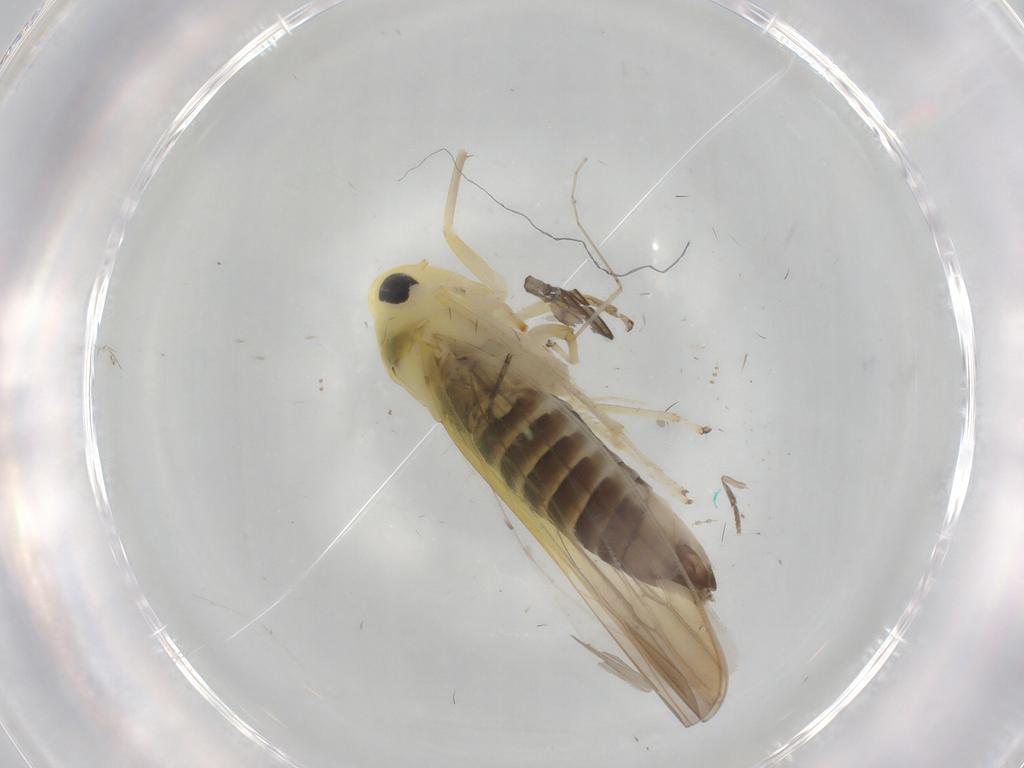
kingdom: Animalia
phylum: Arthropoda
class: Insecta
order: Hemiptera
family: Cicadellidae
